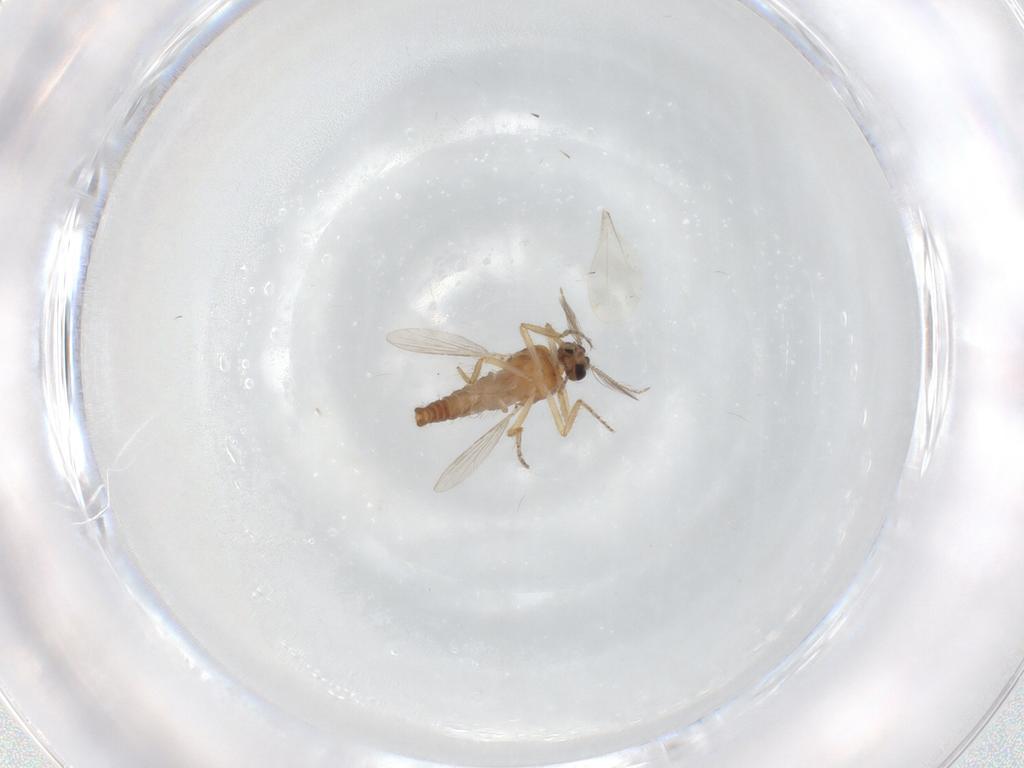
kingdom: Animalia
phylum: Arthropoda
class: Insecta
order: Diptera
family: Ceratopogonidae
